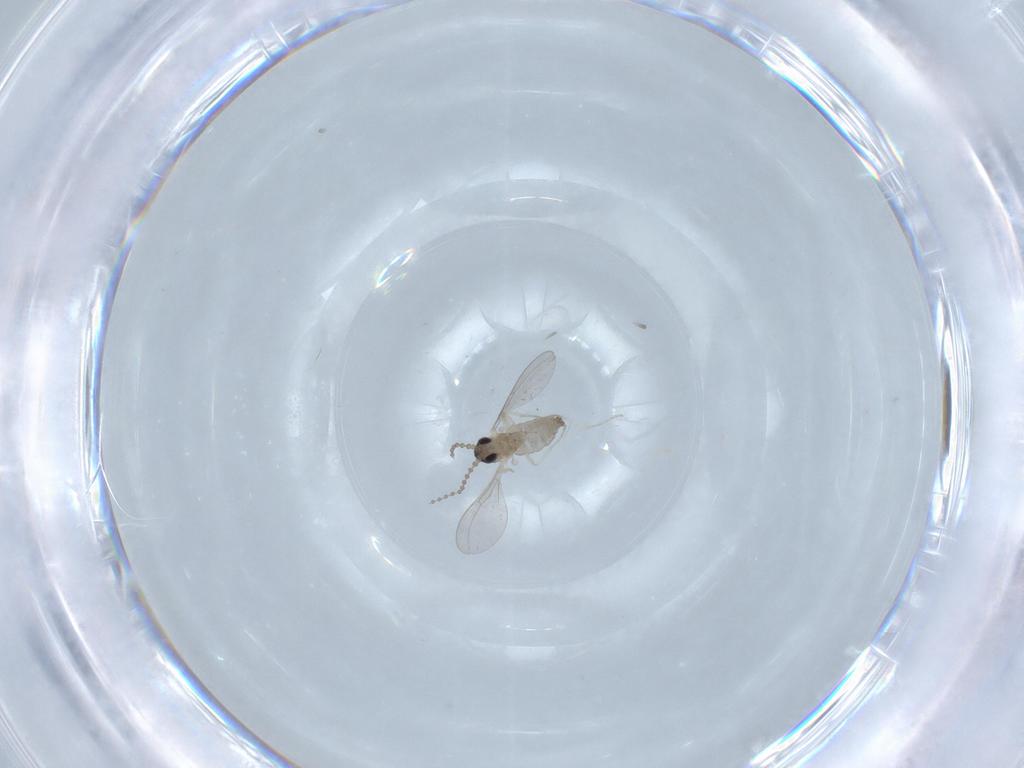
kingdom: Animalia
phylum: Arthropoda
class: Insecta
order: Diptera
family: Cecidomyiidae
